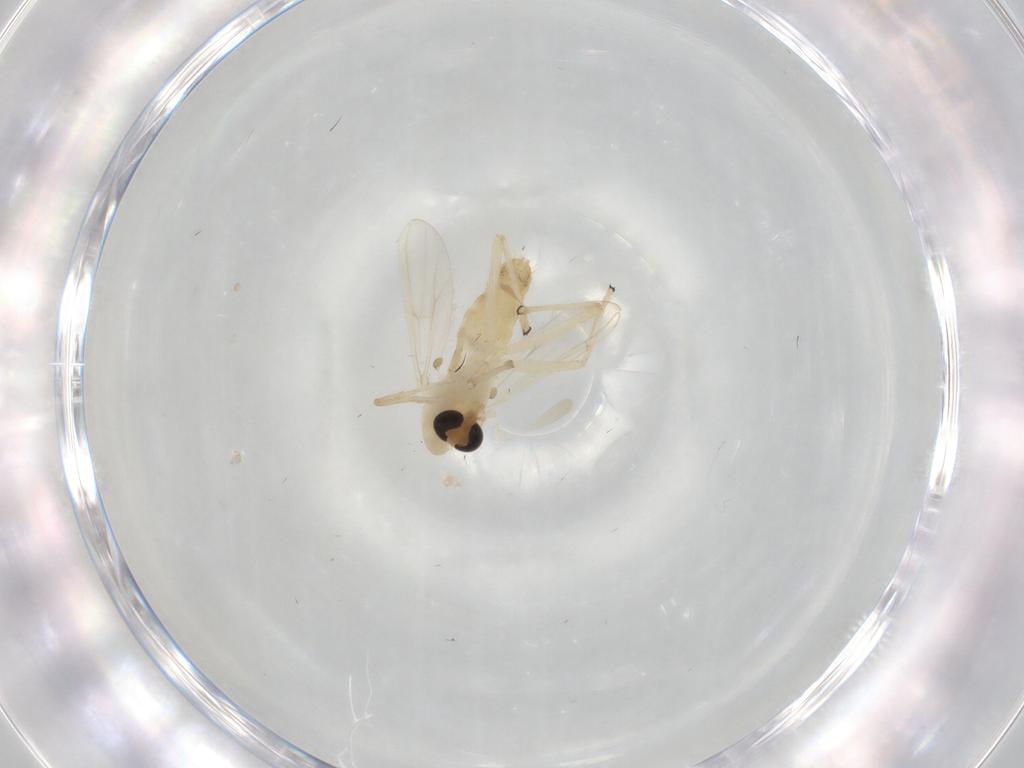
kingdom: Animalia
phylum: Arthropoda
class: Insecta
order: Diptera
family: Chironomidae
